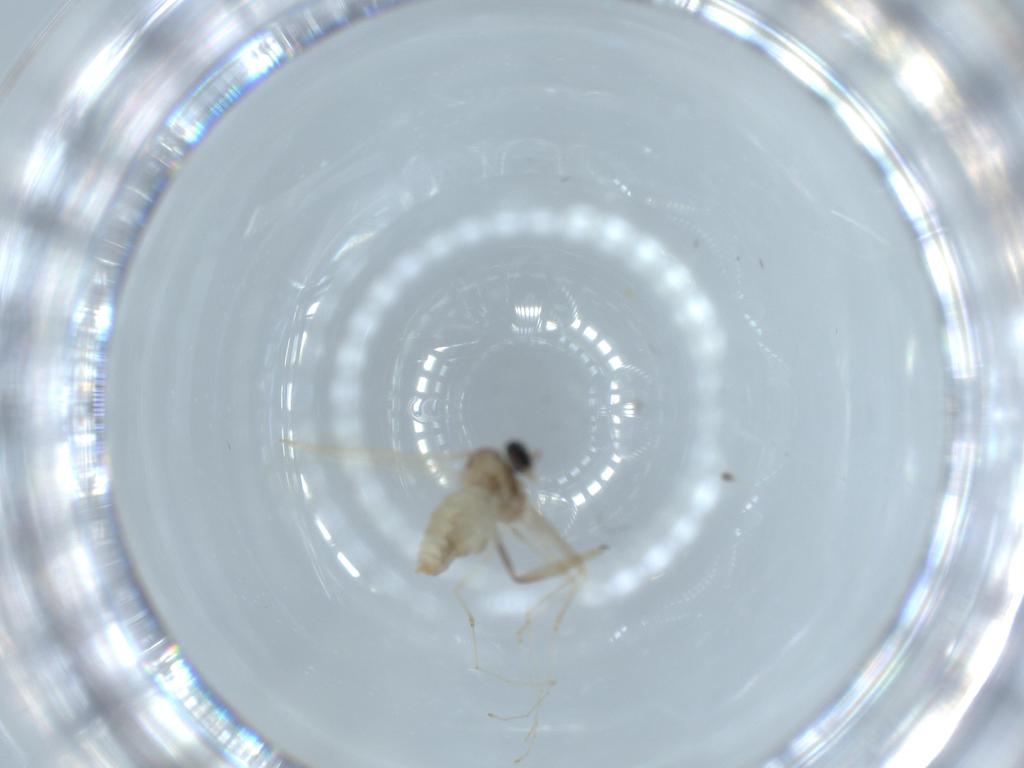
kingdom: Animalia
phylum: Arthropoda
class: Insecta
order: Diptera
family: Cecidomyiidae
